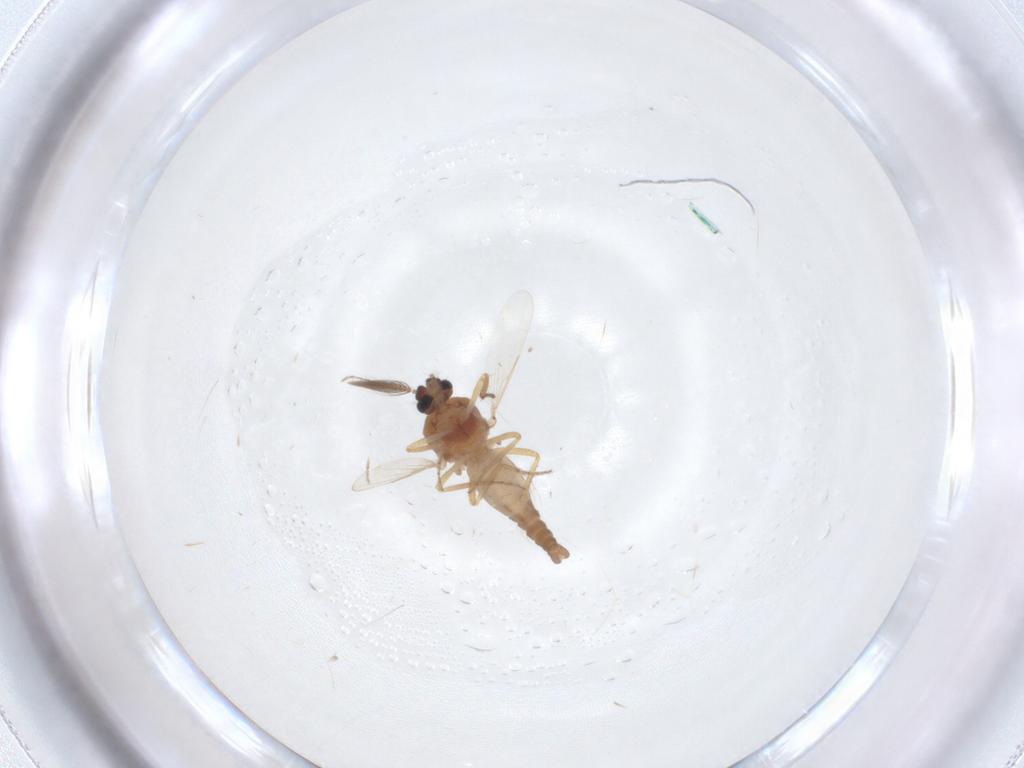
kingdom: Animalia
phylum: Arthropoda
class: Insecta
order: Diptera
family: Ceratopogonidae
